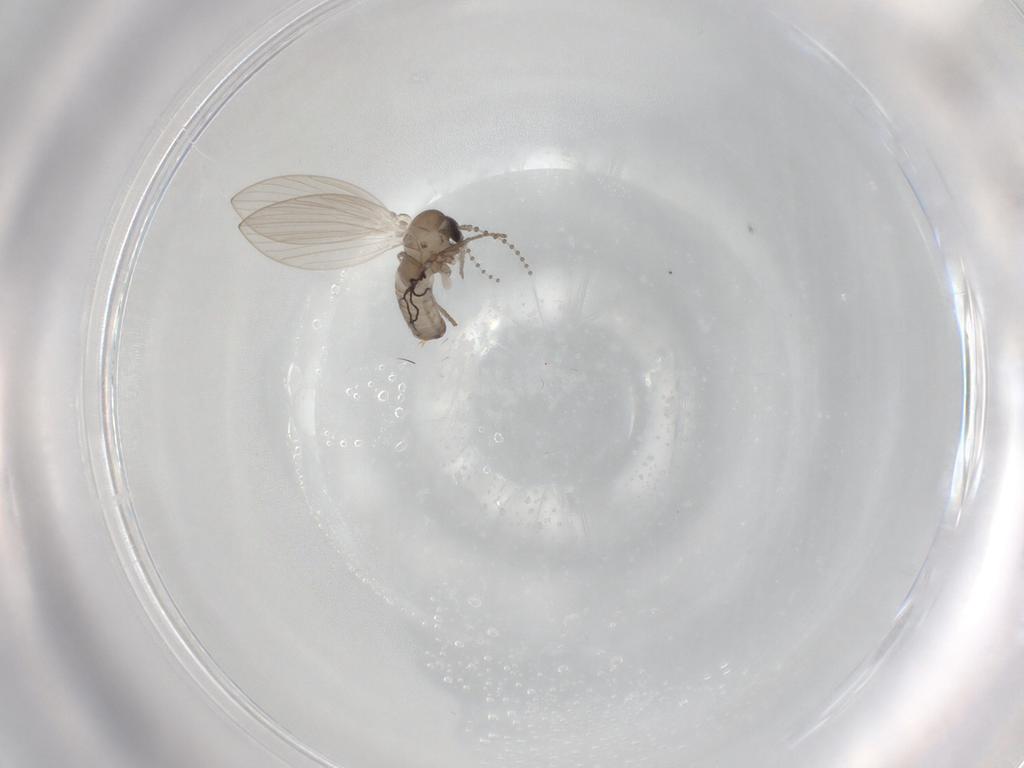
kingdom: Animalia
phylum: Arthropoda
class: Insecta
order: Diptera
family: Psychodidae
